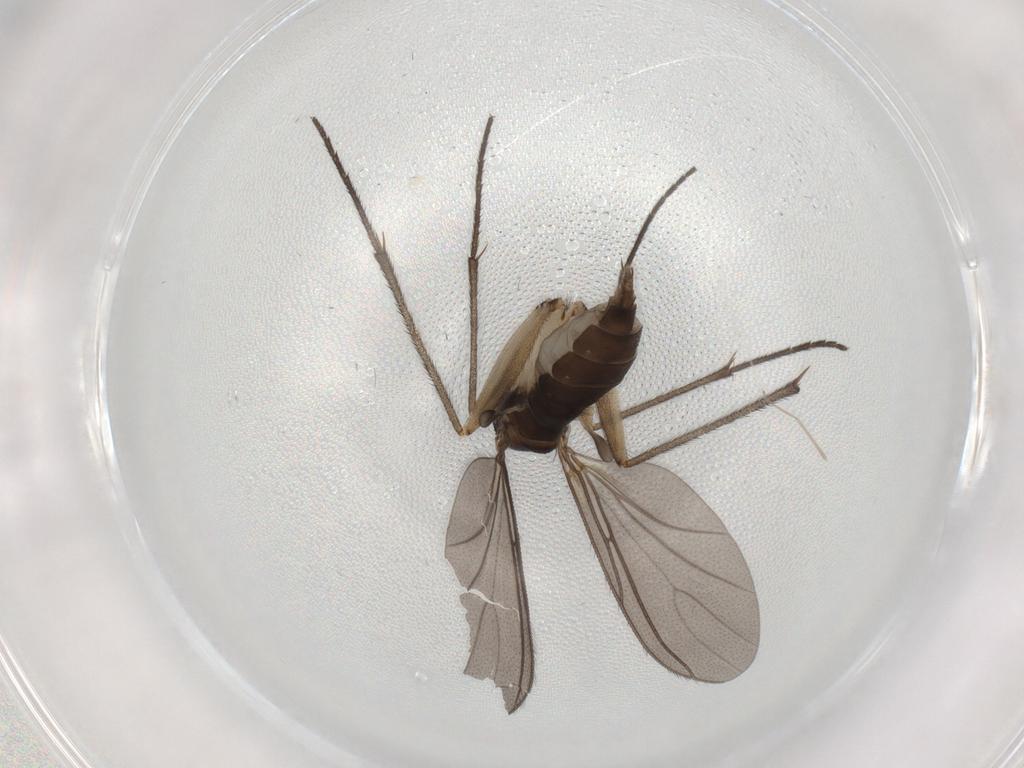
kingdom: Animalia
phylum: Arthropoda
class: Insecta
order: Diptera
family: Sciaridae
